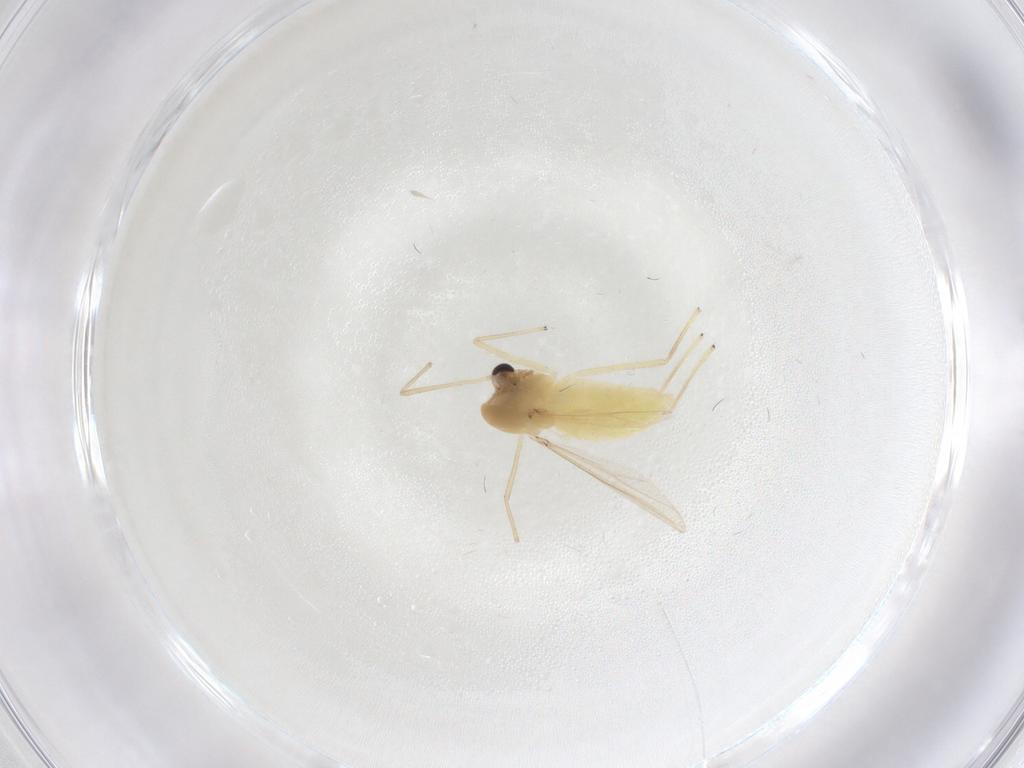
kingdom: Animalia
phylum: Arthropoda
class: Insecta
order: Diptera
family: Chironomidae
